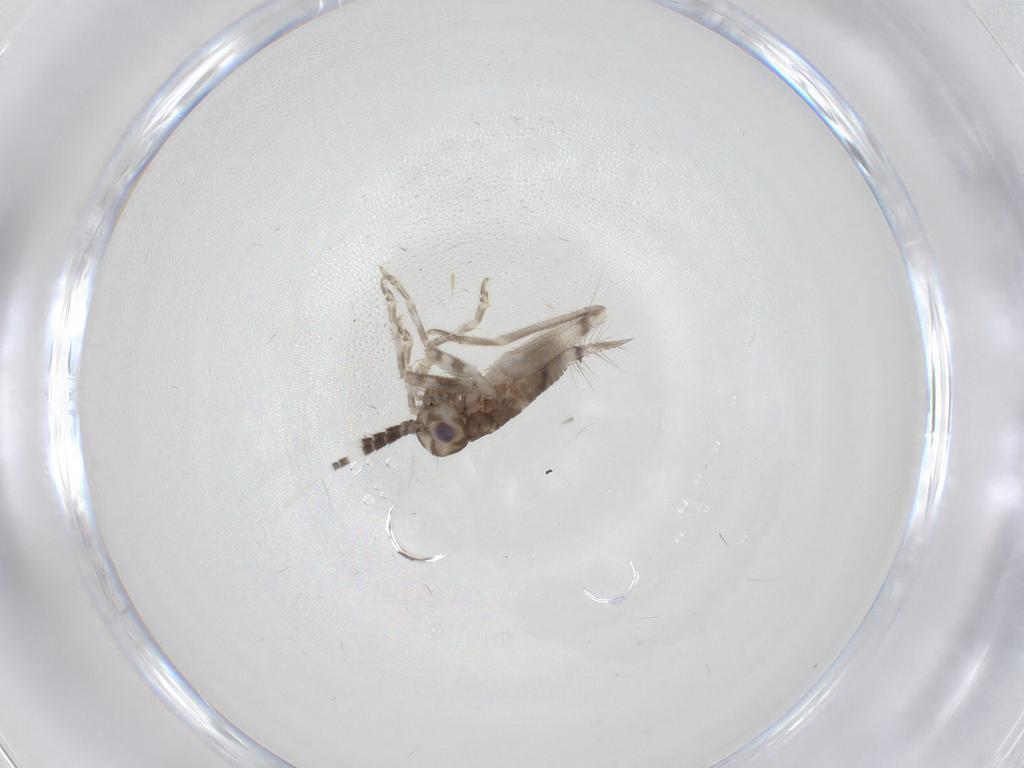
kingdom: Animalia
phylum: Arthropoda
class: Insecta
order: Orthoptera
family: Trigonidiidae
